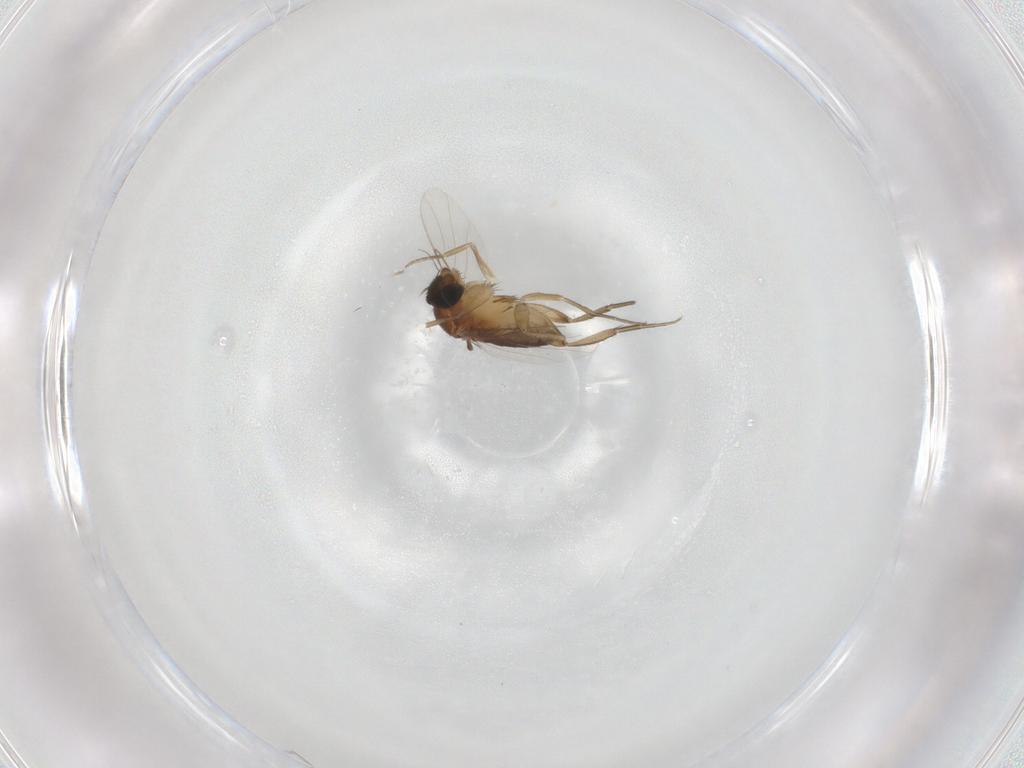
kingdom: Animalia
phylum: Arthropoda
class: Insecta
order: Diptera
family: Phoridae
